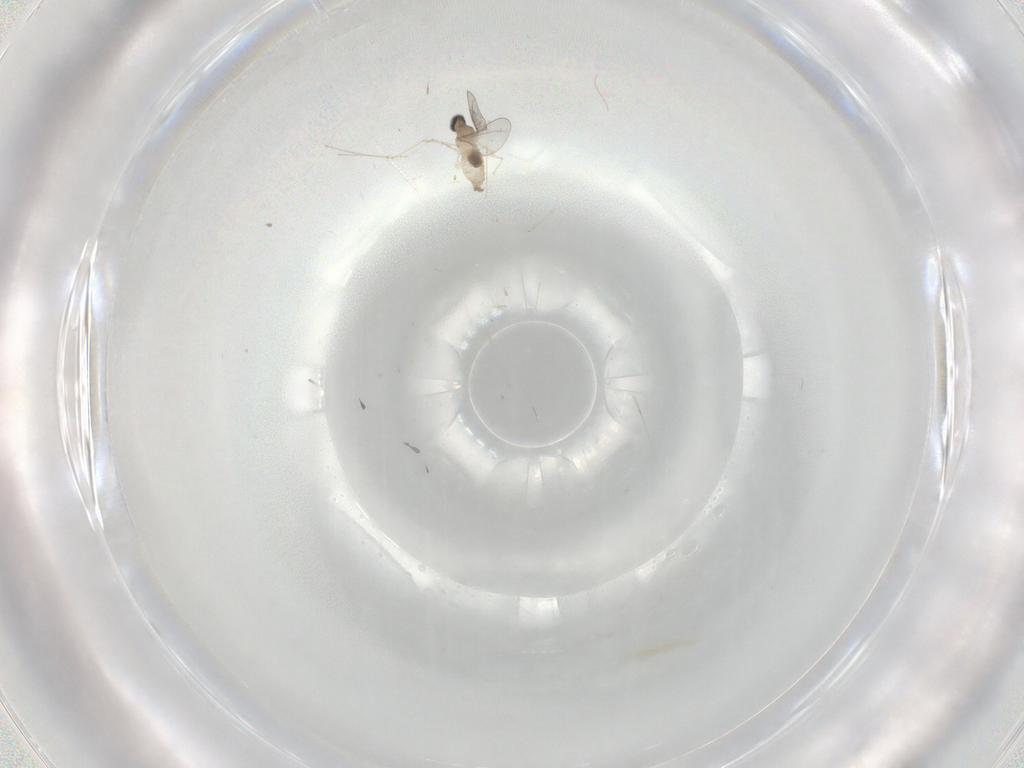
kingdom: Animalia
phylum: Arthropoda
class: Insecta
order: Diptera
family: Cecidomyiidae
